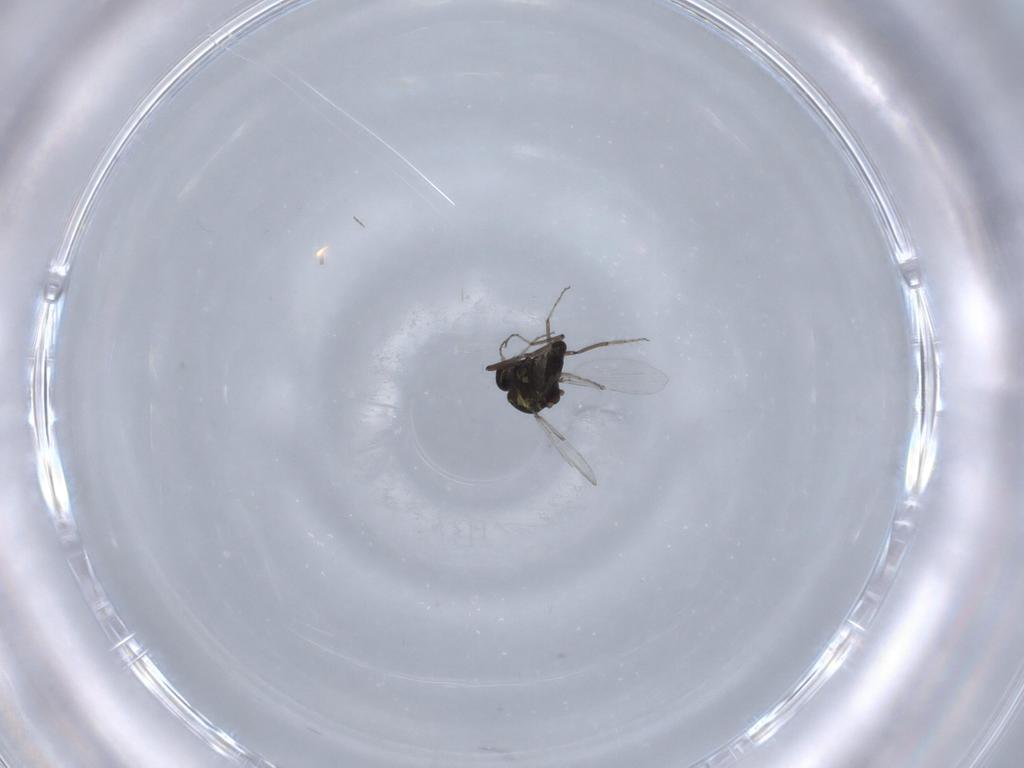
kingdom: Animalia
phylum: Arthropoda
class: Insecta
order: Diptera
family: Ceratopogonidae
